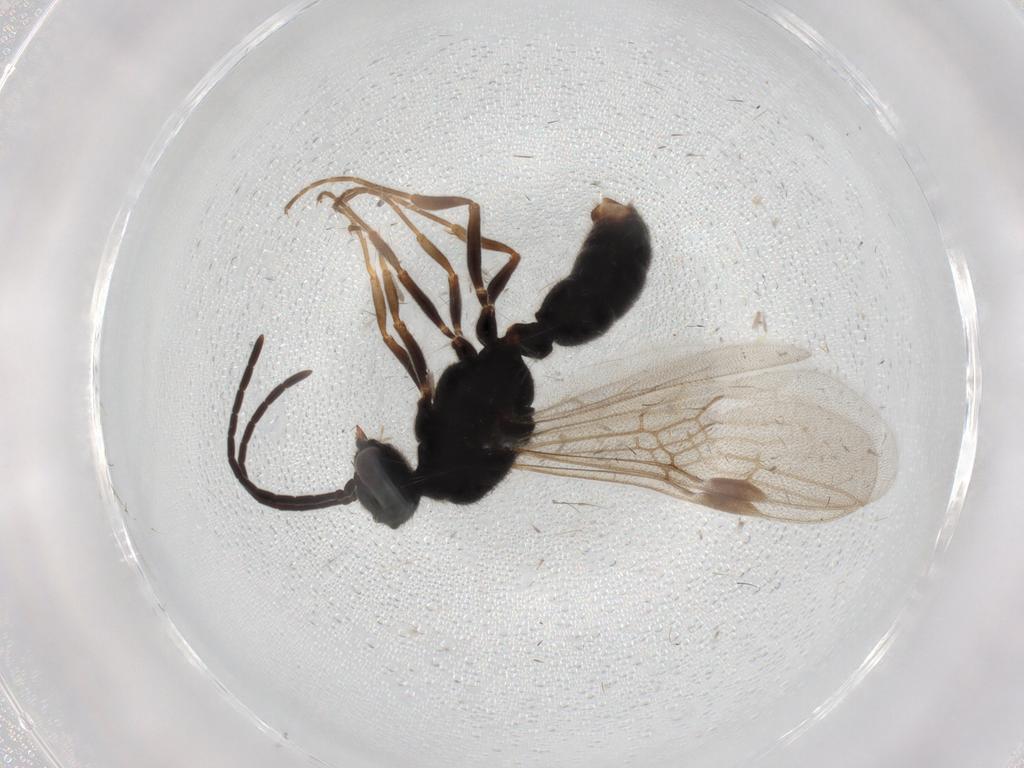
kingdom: Animalia
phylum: Arthropoda
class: Insecta
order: Hymenoptera
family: Formicidae
